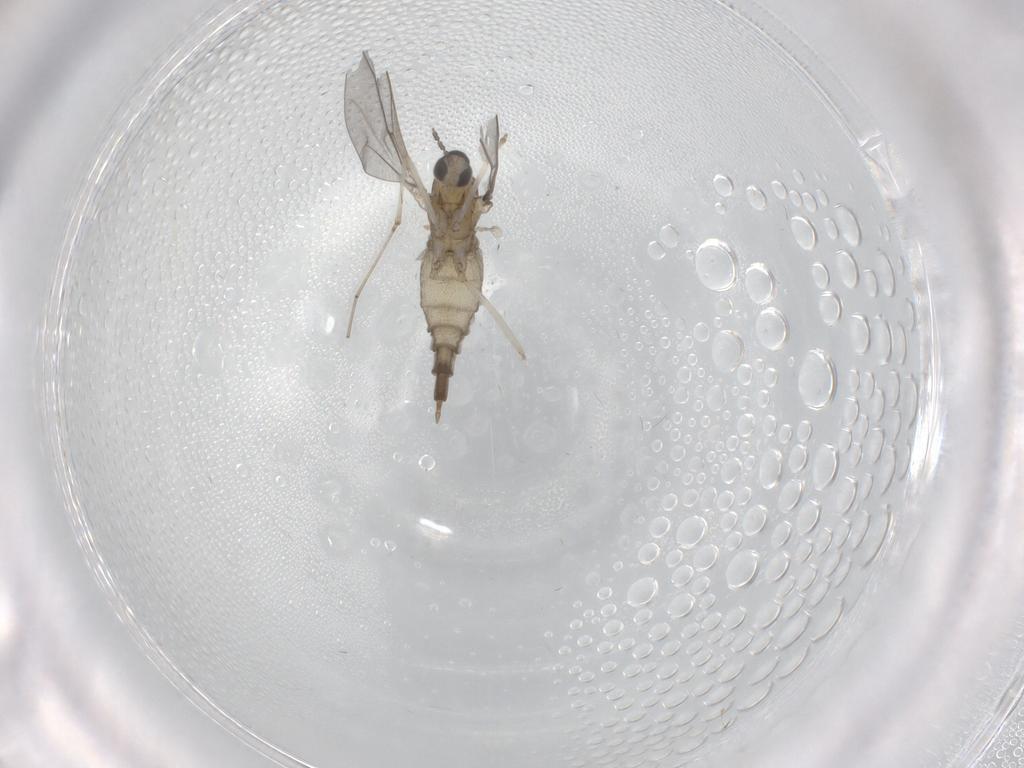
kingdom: Animalia
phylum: Arthropoda
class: Insecta
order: Diptera
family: Cecidomyiidae
